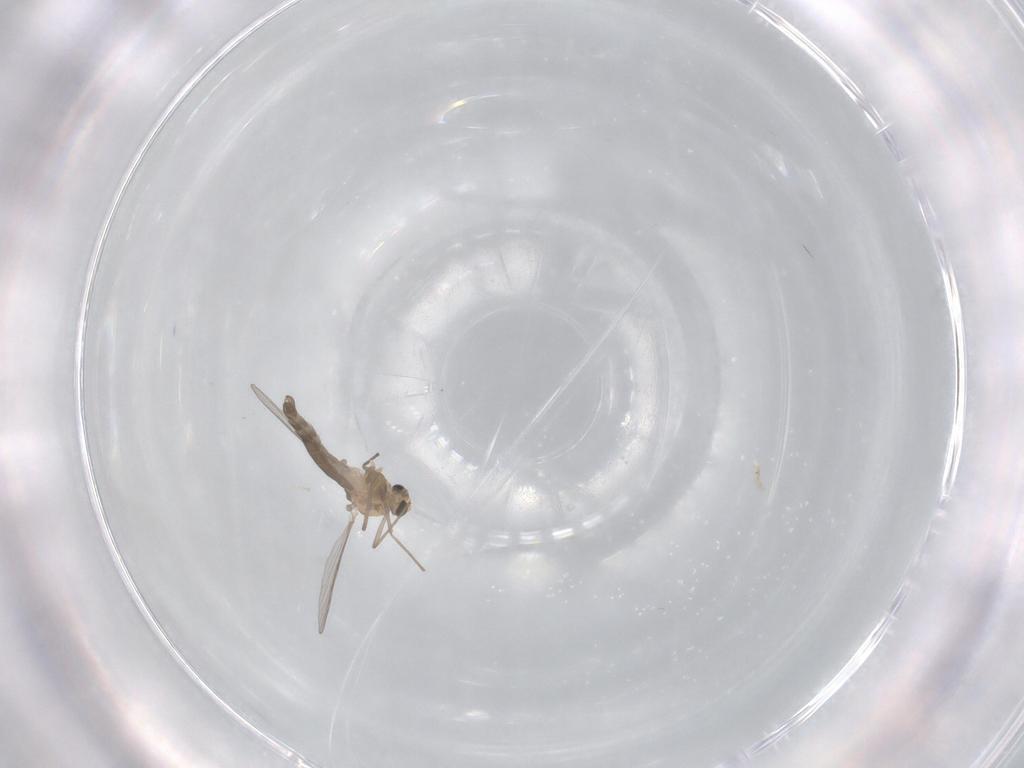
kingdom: Animalia
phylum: Arthropoda
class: Insecta
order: Diptera
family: Chironomidae
